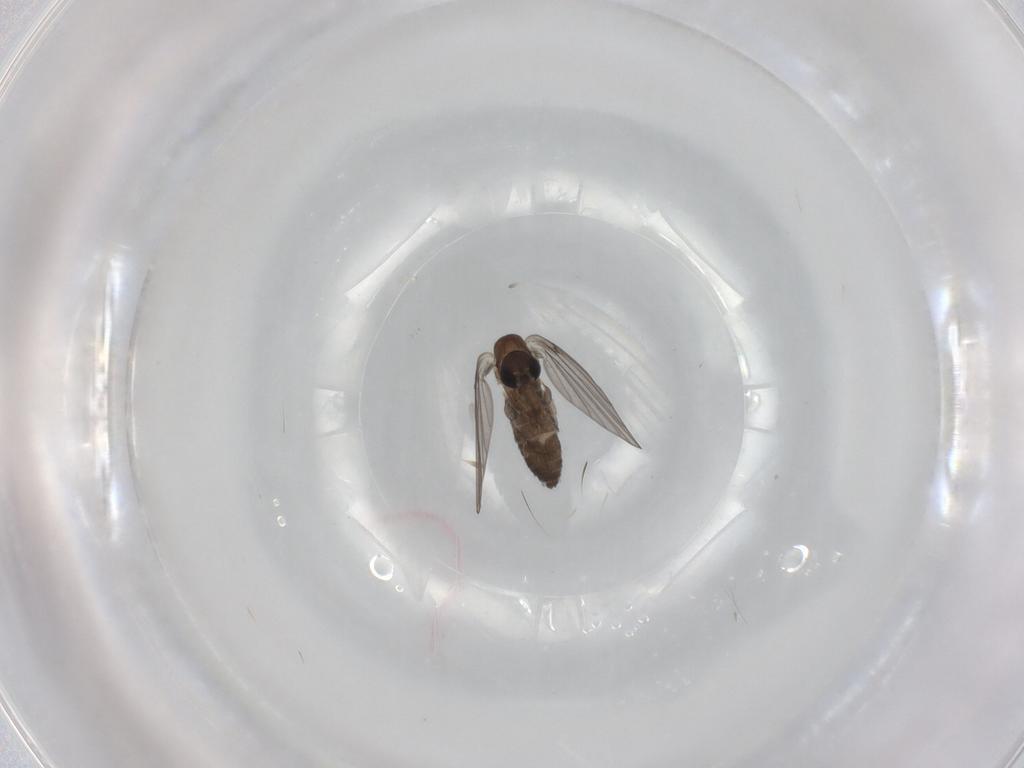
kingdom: Animalia
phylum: Arthropoda
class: Insecta
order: Diptera
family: Psychodidae
